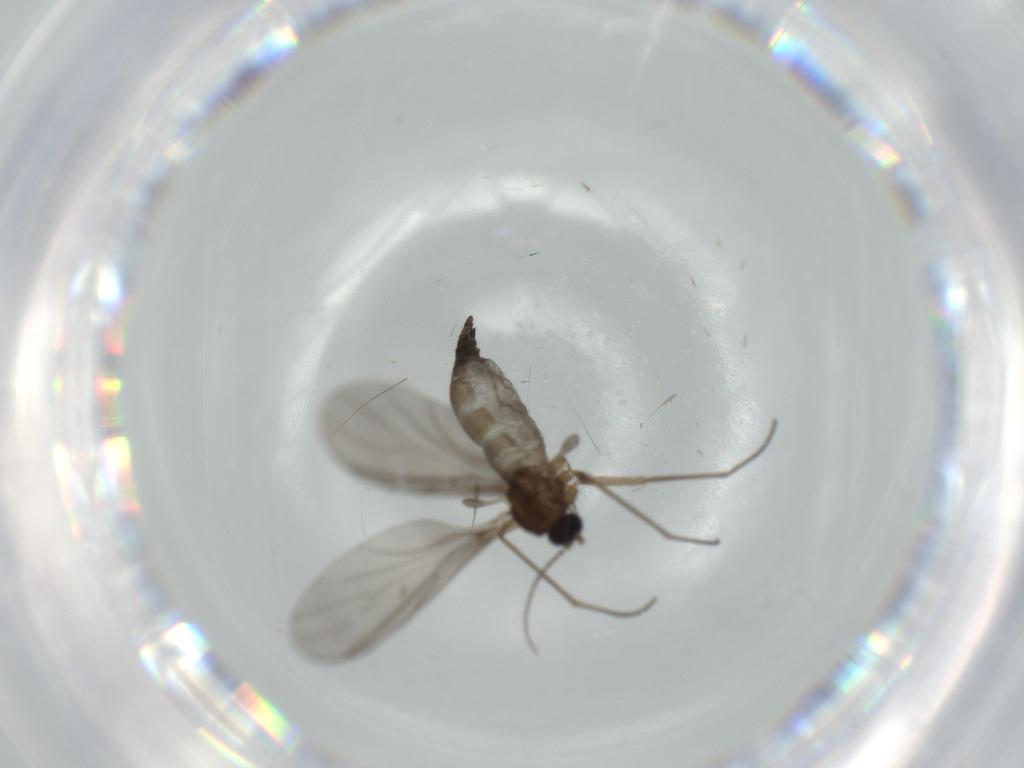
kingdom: Animalia
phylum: Arthropoda
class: Insecta
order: Diptera
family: Sciaridae
